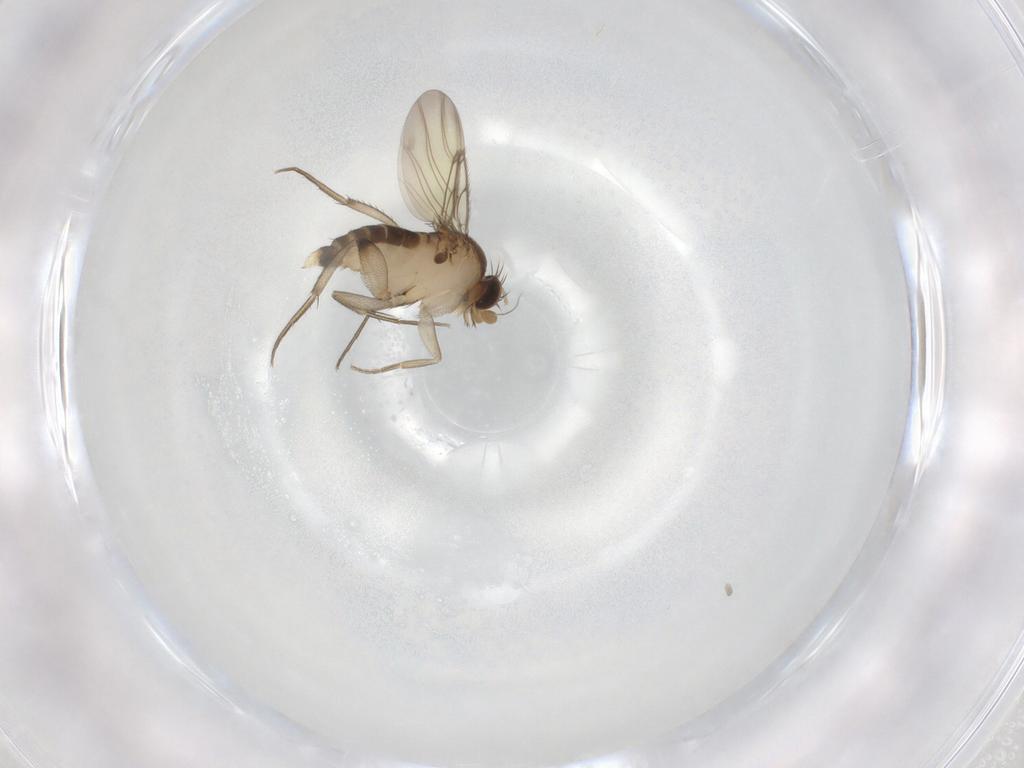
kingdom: Animalia
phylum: Arthropoda
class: Insecta
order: Diptera
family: Phoridae
